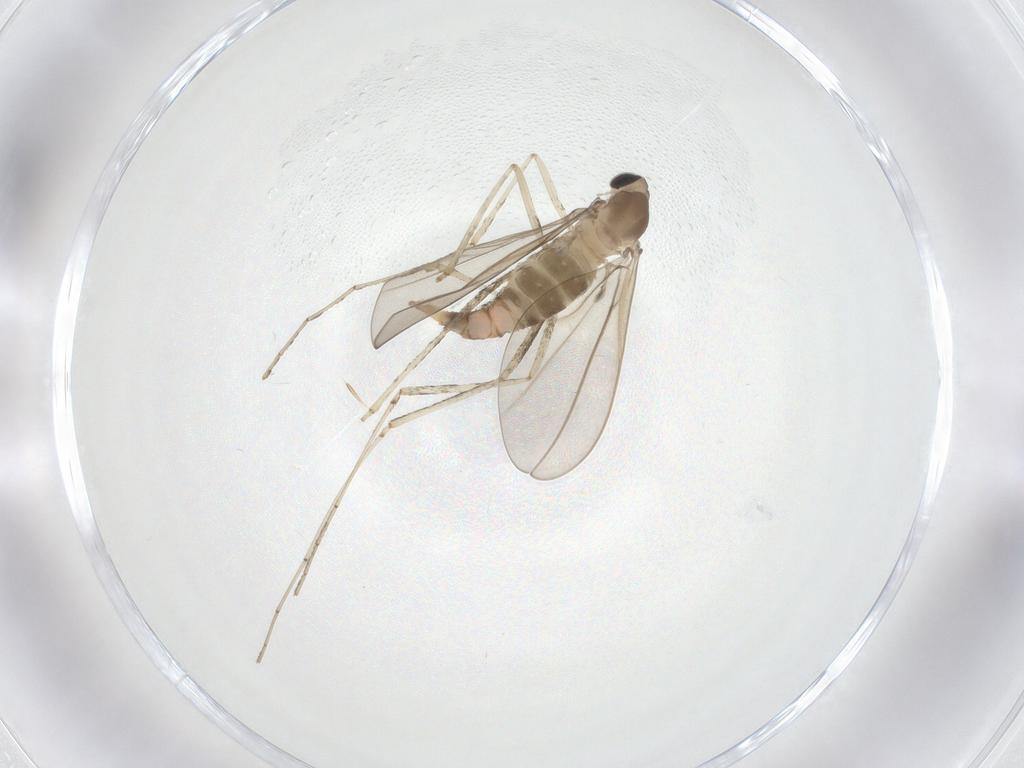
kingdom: Animalia
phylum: Arthropoda
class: Insecta
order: Diptera
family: Cecidomyiidae
